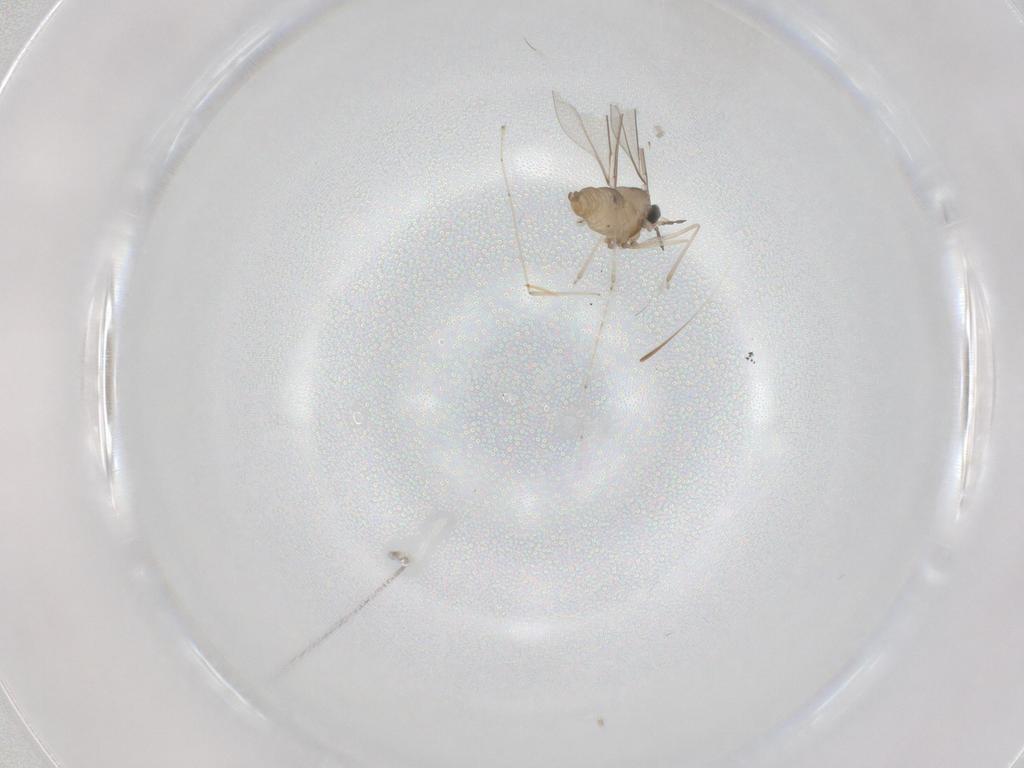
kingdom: Animalia
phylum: Arthropoda
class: Insecta
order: Diptera
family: Cecidomyiidae
